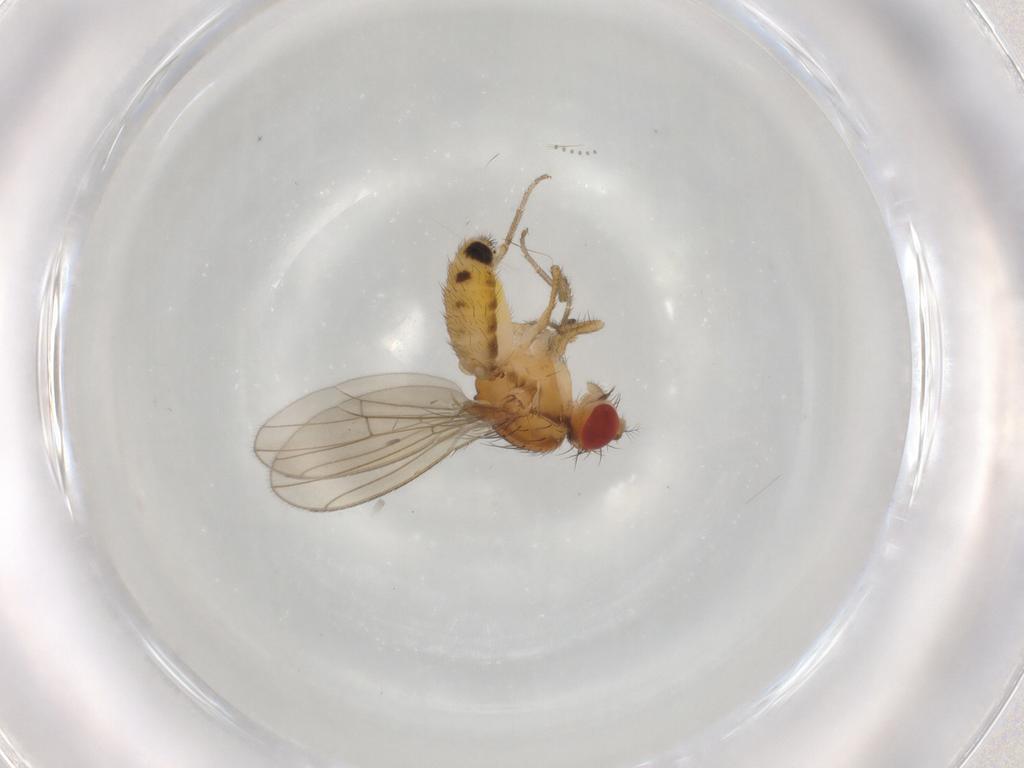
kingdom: Animalia
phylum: Arthropoda
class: Insecta
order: Diptera
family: Drosophilidae
